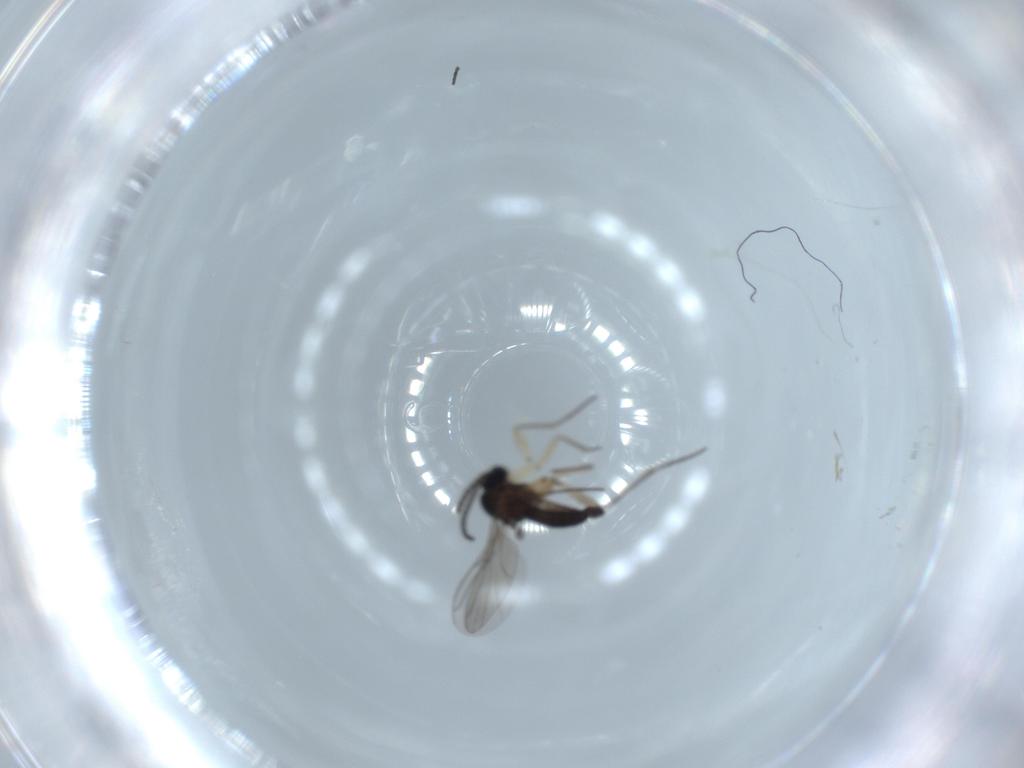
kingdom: Animalia
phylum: Arthropoda
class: Insecta
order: Diptera
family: Sciaridae
